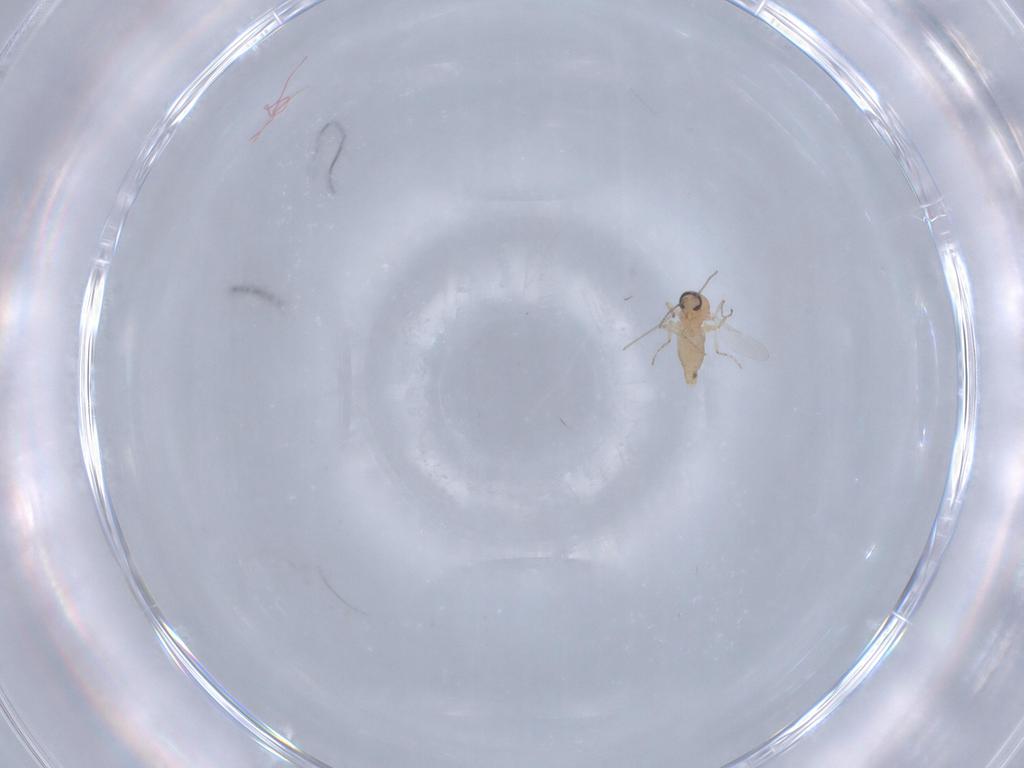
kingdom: Animalia
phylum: Arthropoda
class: Insecta
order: Diptera
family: Ceratopogonidae
